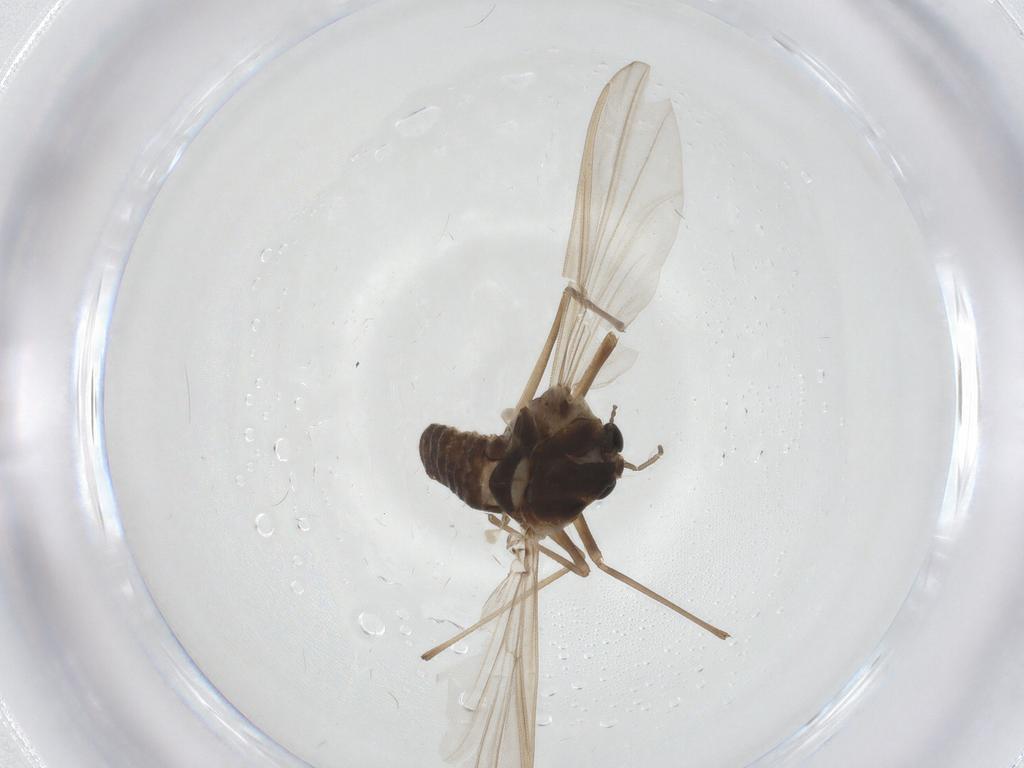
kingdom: Animalia
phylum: Arthropoda
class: Insecta
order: Diptera
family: Chironomidae
